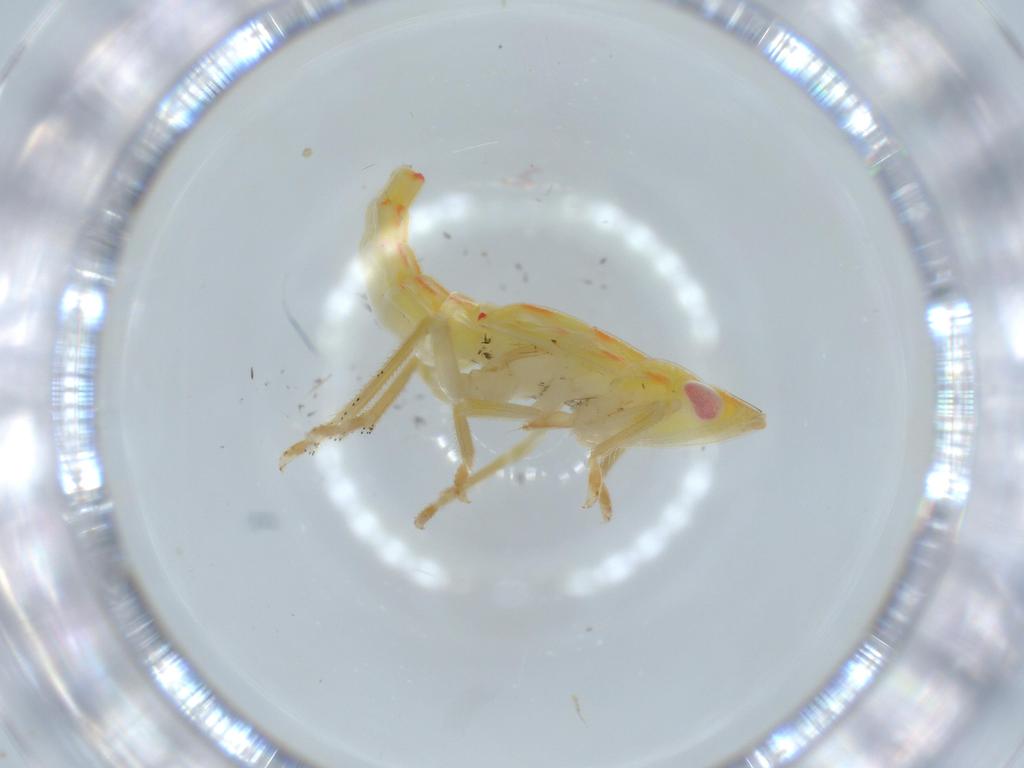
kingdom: Animalia
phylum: Arthropoda
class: Insecta
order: Hemiptera
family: Tropiduchidae
